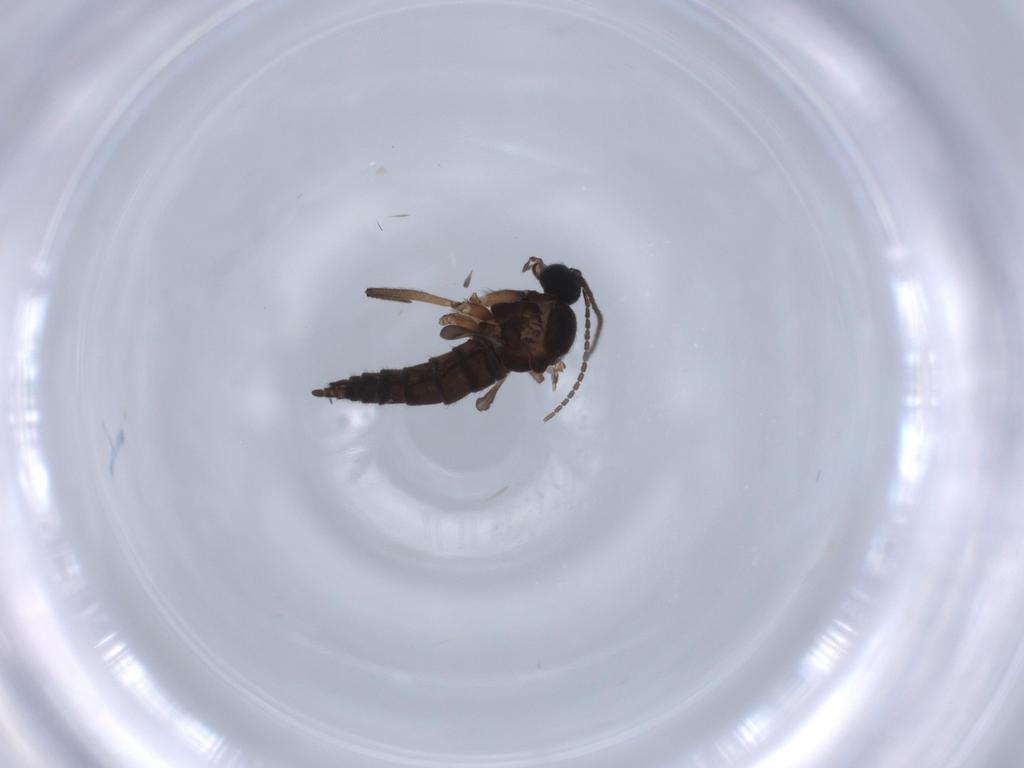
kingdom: Animalia
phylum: Arthropoda
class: Insecta
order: Diptera
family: Sciaridae
